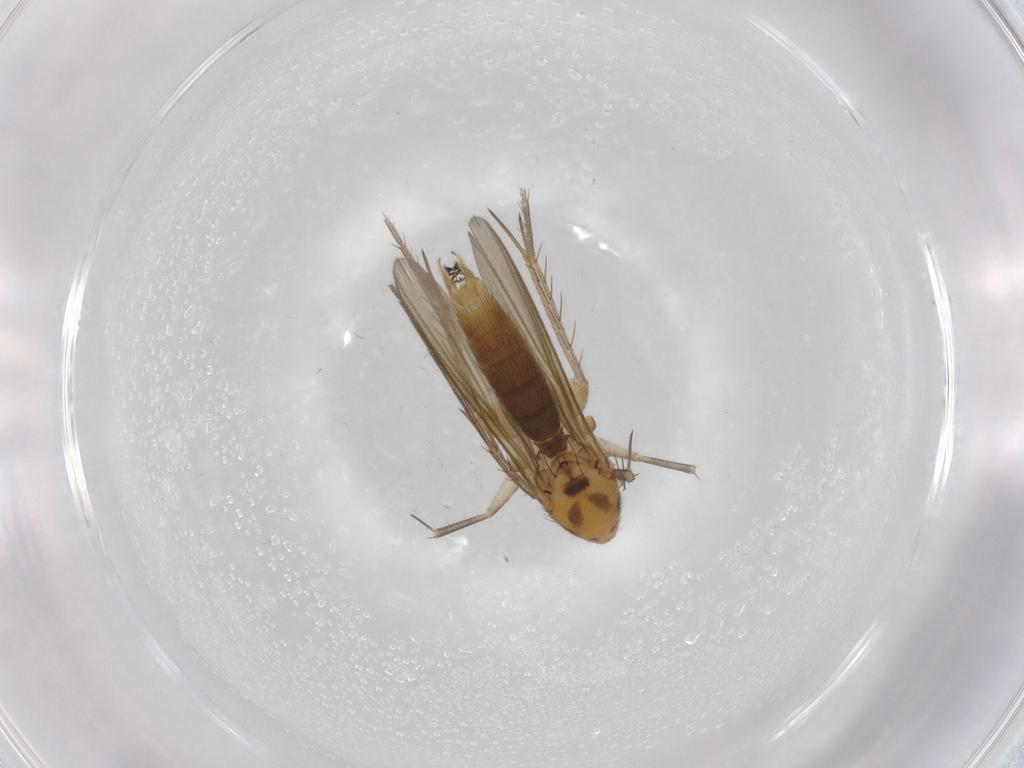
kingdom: Animalia
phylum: Arthropoda
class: Insecta
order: Diptera
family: Mycetophilidae
